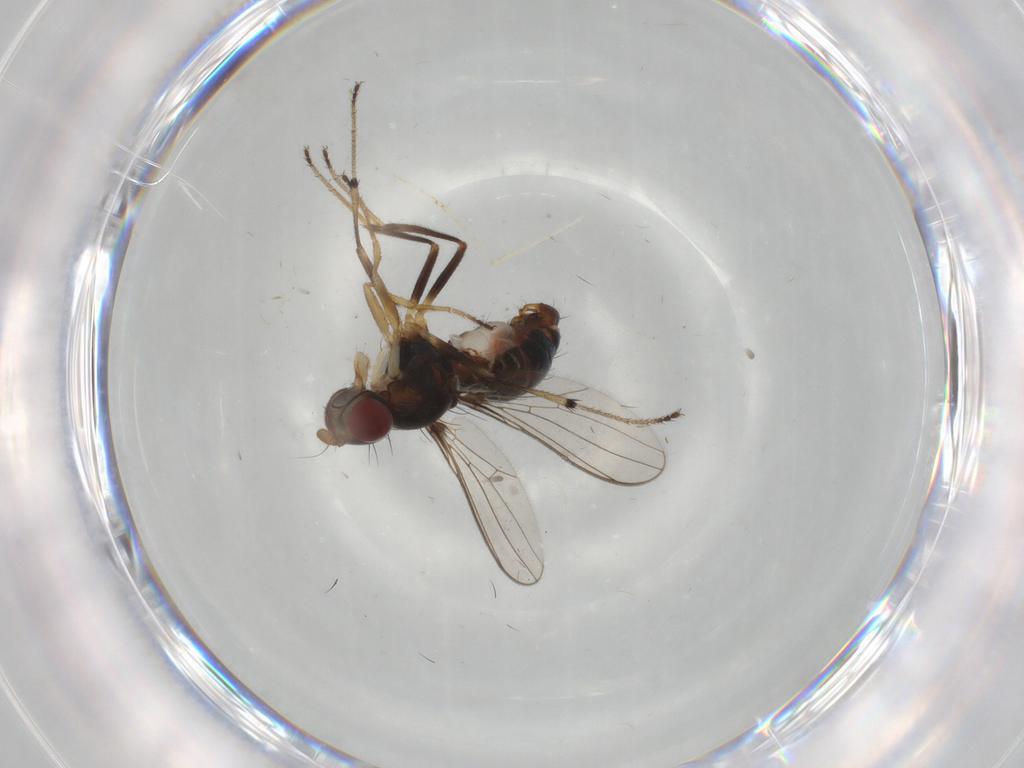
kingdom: Animalia
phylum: Arthropoda
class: Insecta
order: Diptera
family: Sepsidae
